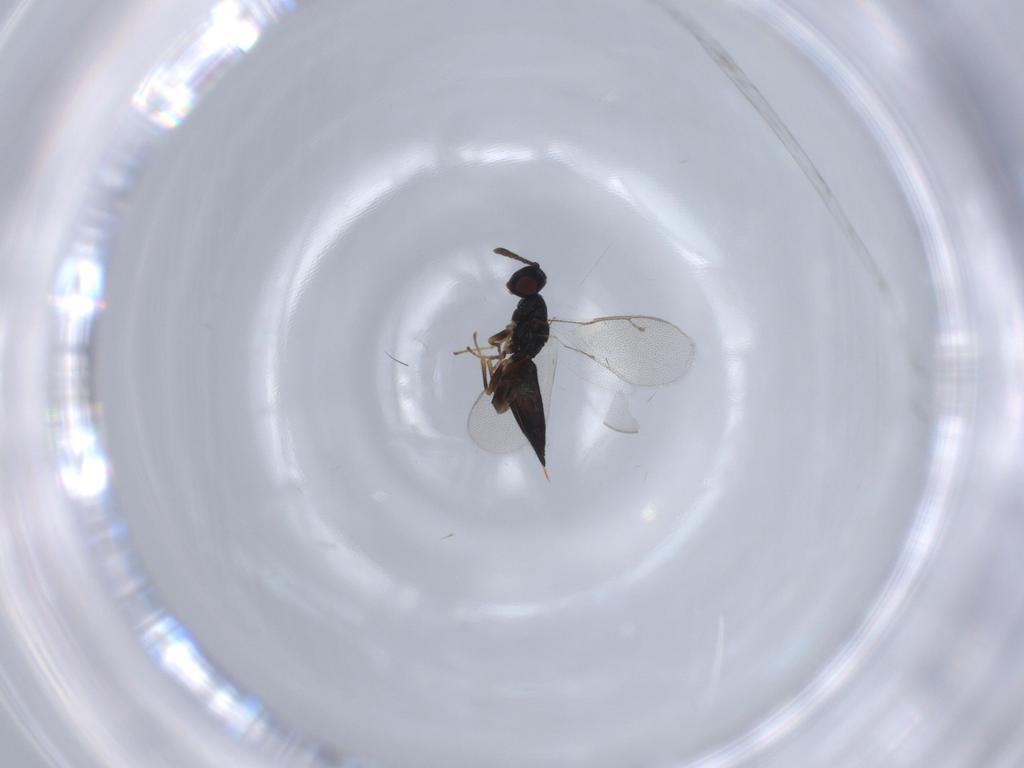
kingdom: Animalia
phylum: Arthropoda
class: Insecta
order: Hymenoptera
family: Pteromalidae
